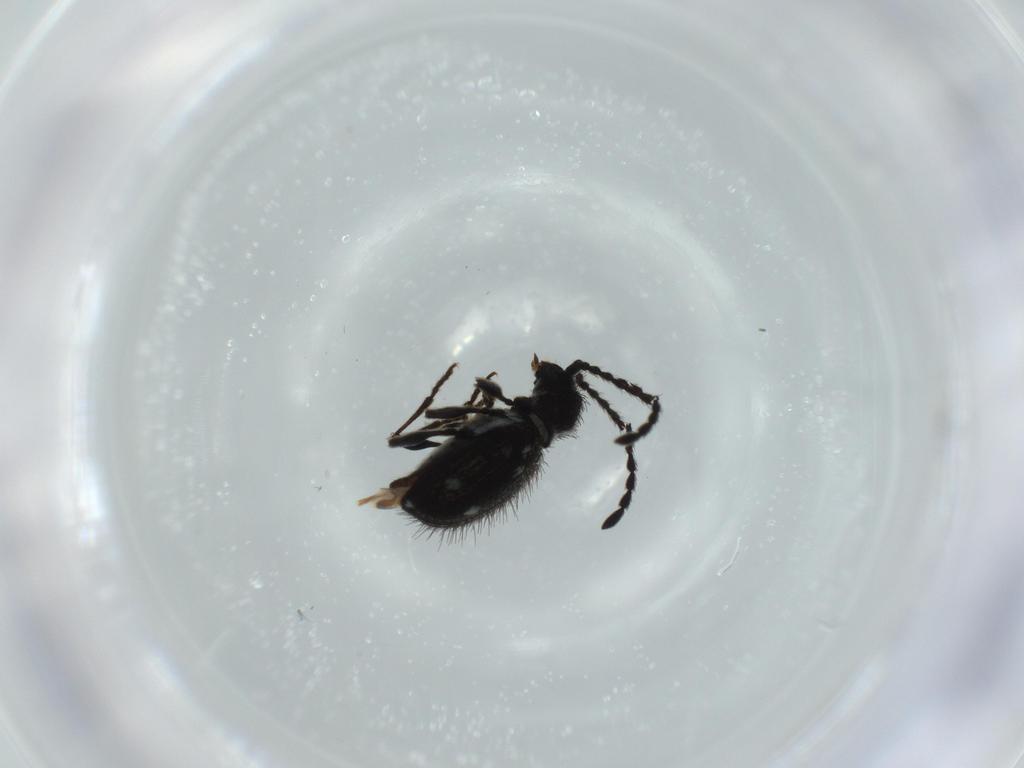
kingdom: Animalia
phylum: Arthropoda
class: Insecta
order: Coleoptera
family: Ptinidae
